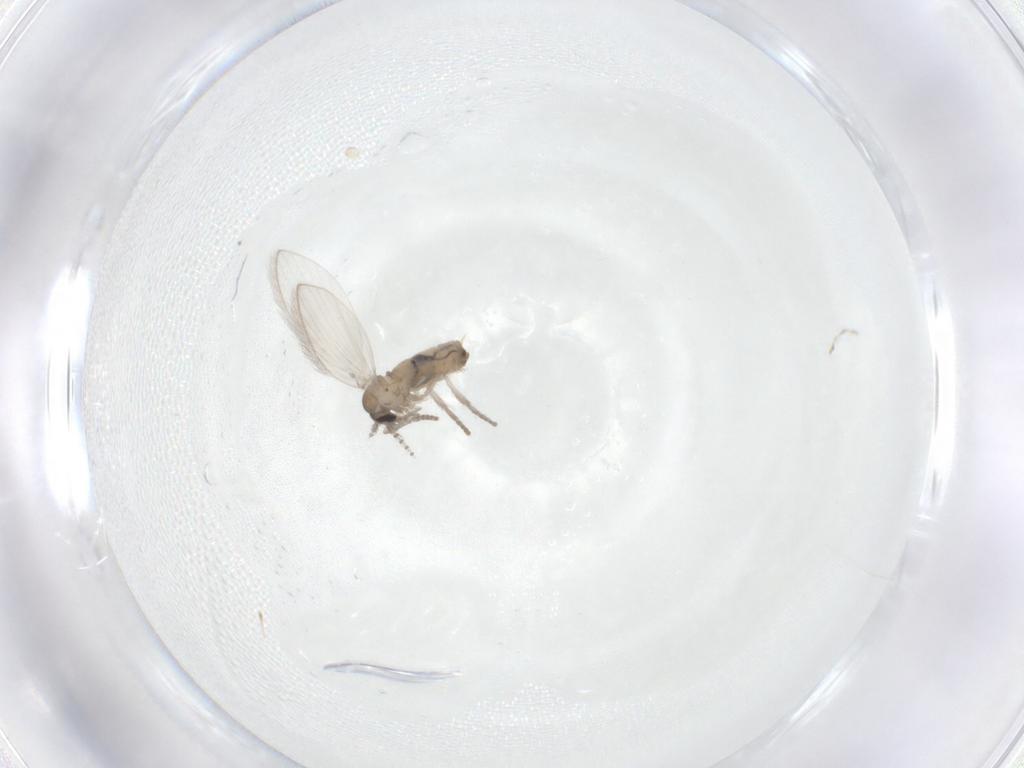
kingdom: Animalia
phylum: Arthropoda
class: Insecta
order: Diptera
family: Psychodidae
